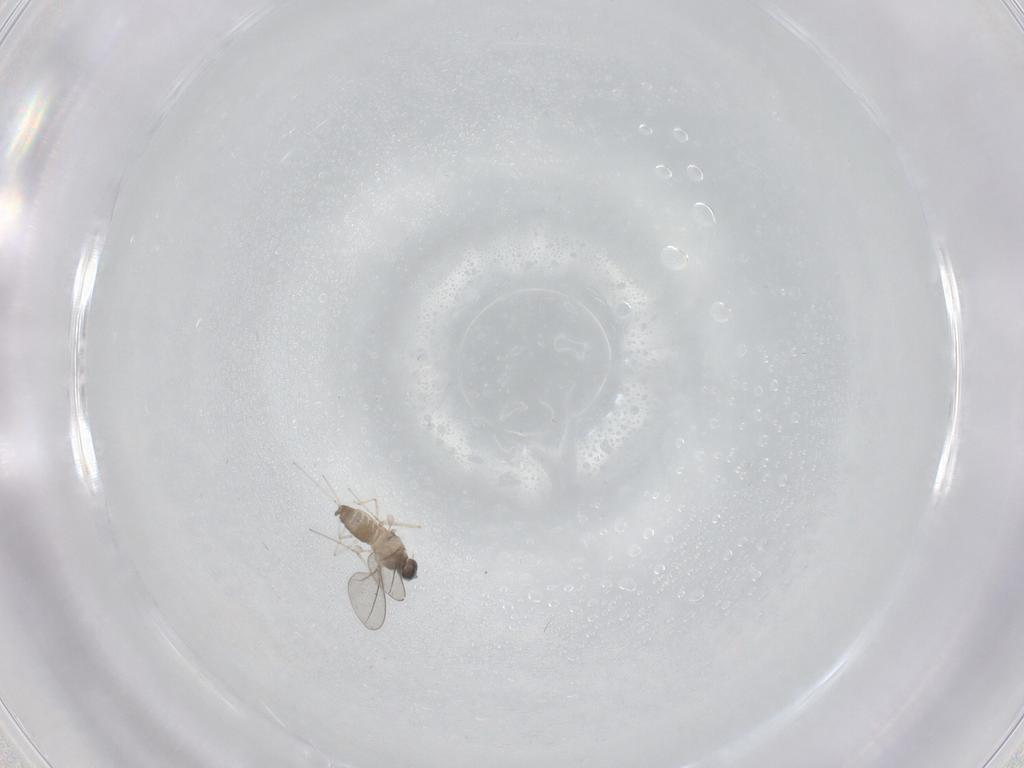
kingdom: Animalia
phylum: Arthropoda
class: Insecta
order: Diptera
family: Cecidomyiidae
